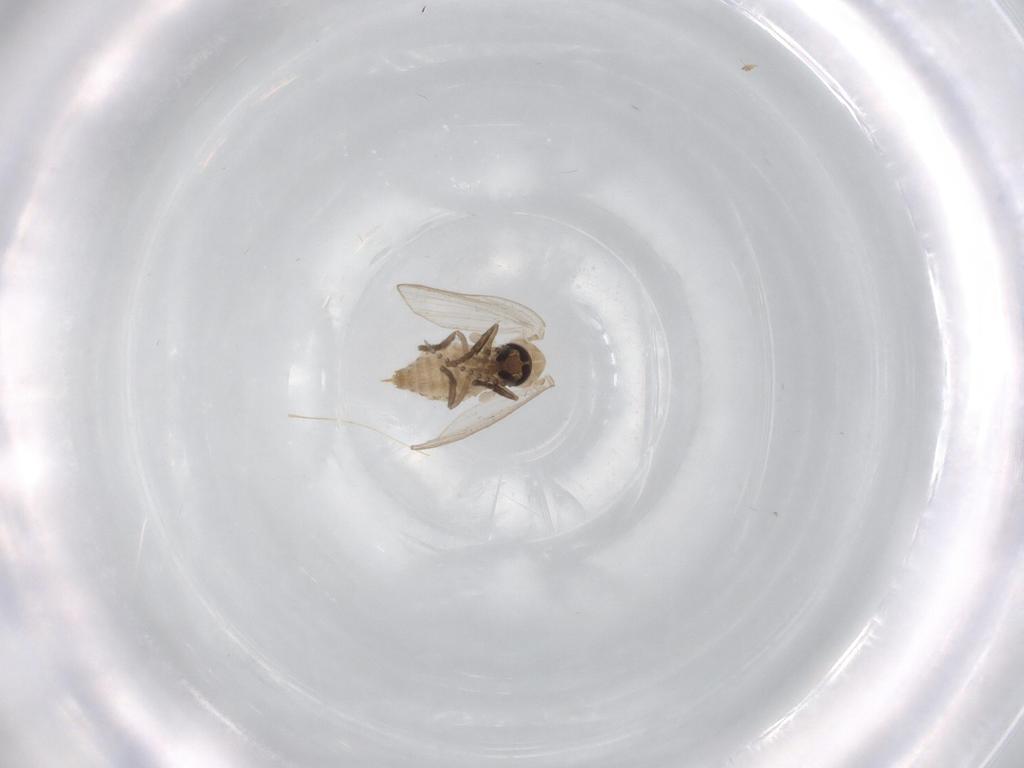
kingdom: Animalia
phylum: Arthropoda
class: Insecta
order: Diptera
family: Psychodidae
